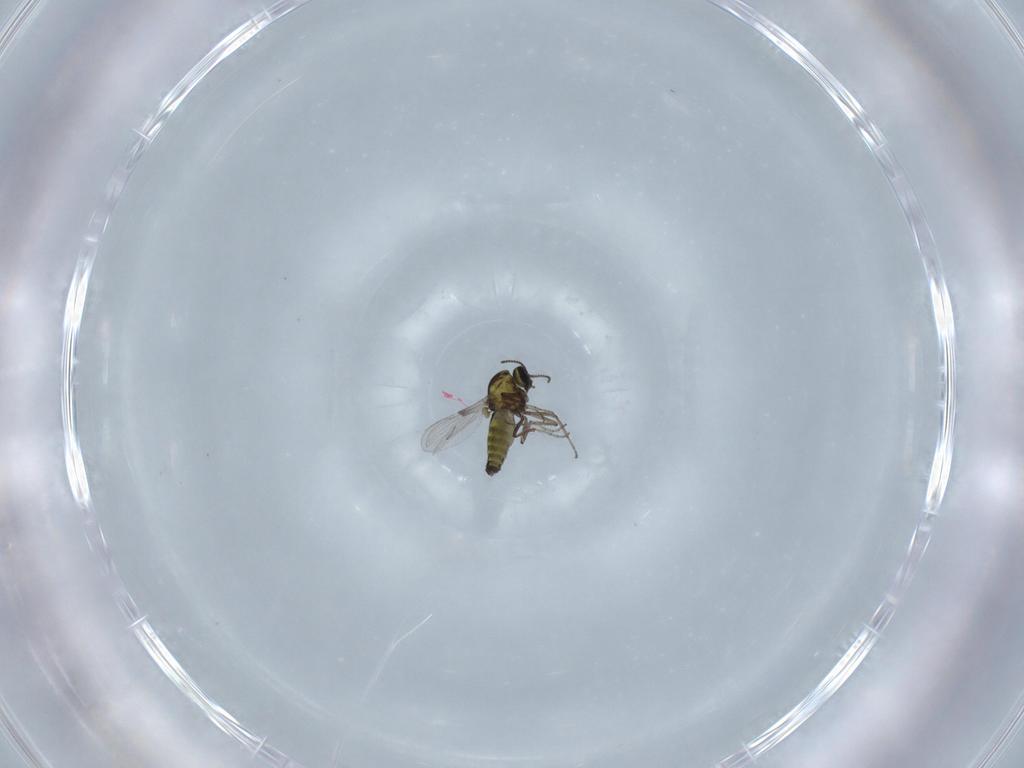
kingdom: Animalia
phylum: Arthropoda
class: Insecta
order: Diptera
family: Ceratopogonidae
